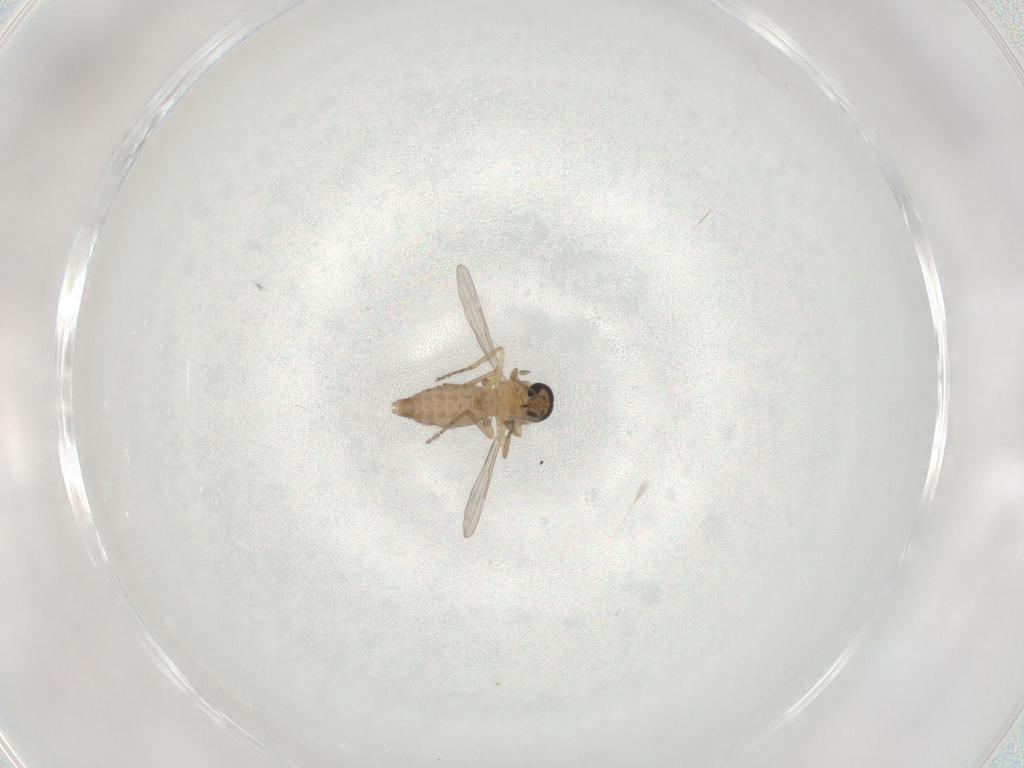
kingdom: Animalia
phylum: Arthropoda
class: Insecta
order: Diptera
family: Ceratopogonidae
